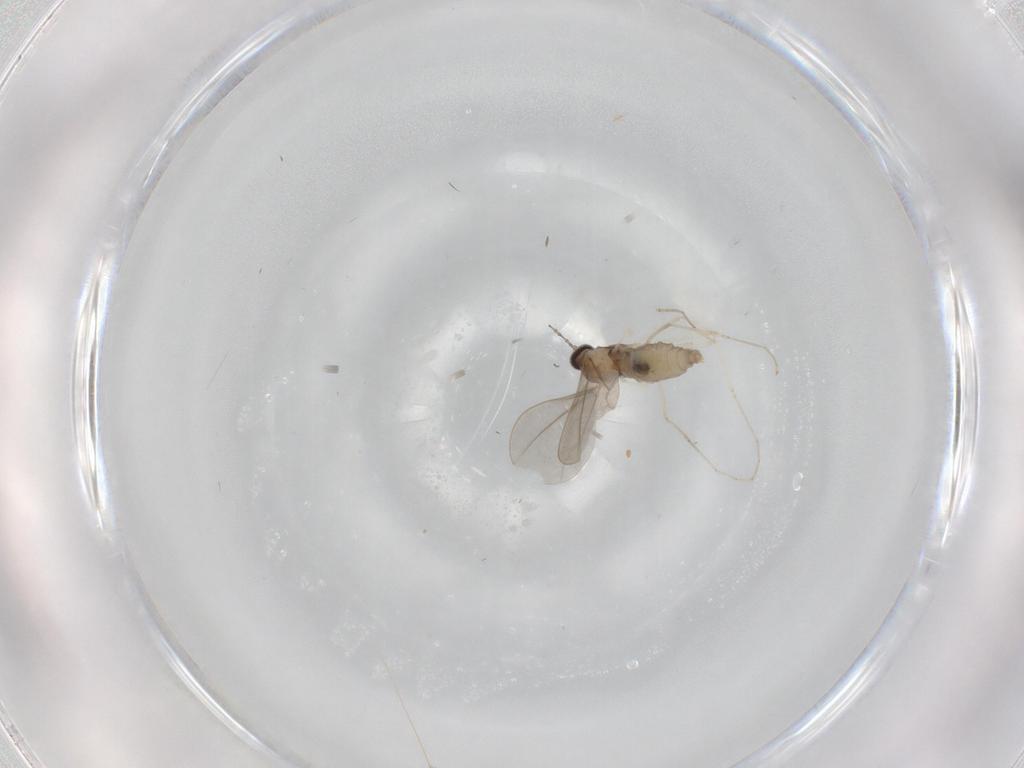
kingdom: Animalia
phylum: Arthropoda
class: Insecta
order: Diptera
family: Cecidomyiidae
